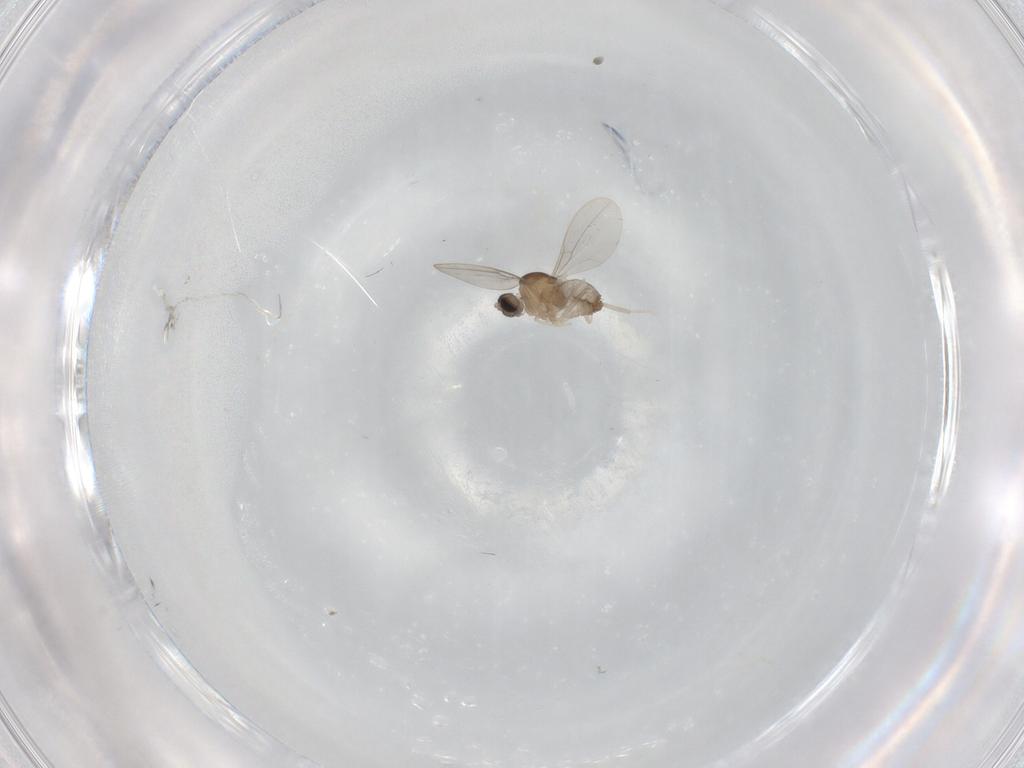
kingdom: Animalia
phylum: Arthropoda
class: Insecta
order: Diptera
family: Cecidomyiidae
